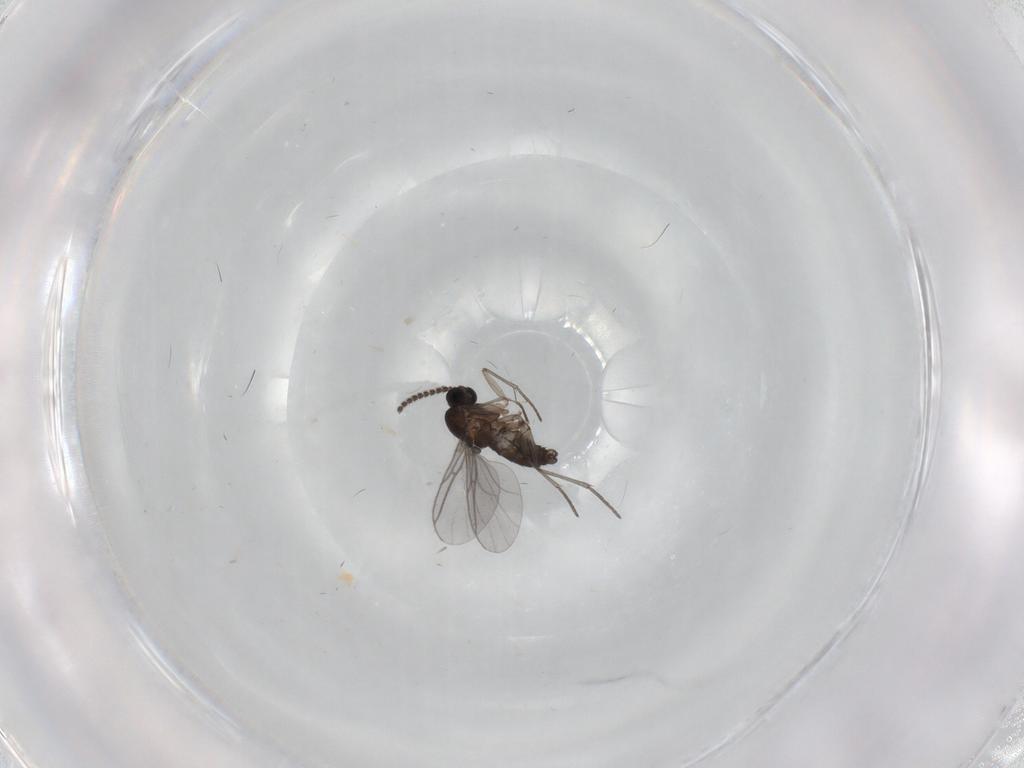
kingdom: Animalia
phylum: Arthropoda
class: Insecta
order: Diptera
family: Sciaridae
